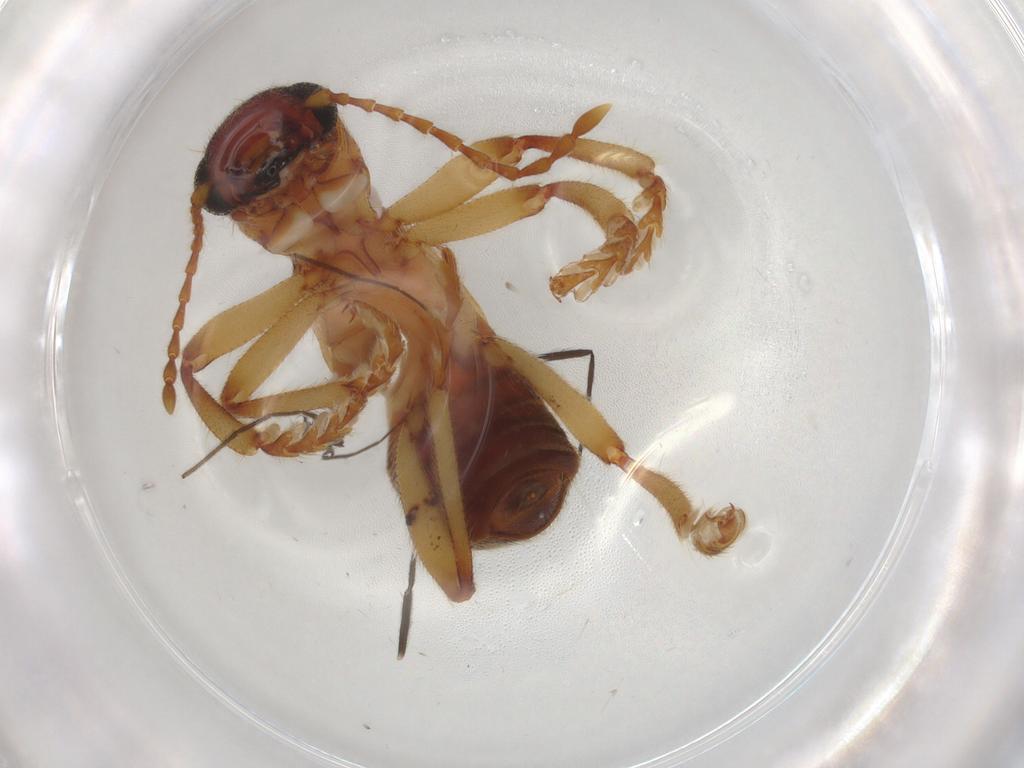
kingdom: Animalia
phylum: Arthropoda
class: Insecta
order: Coleoptera
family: Cleridae
